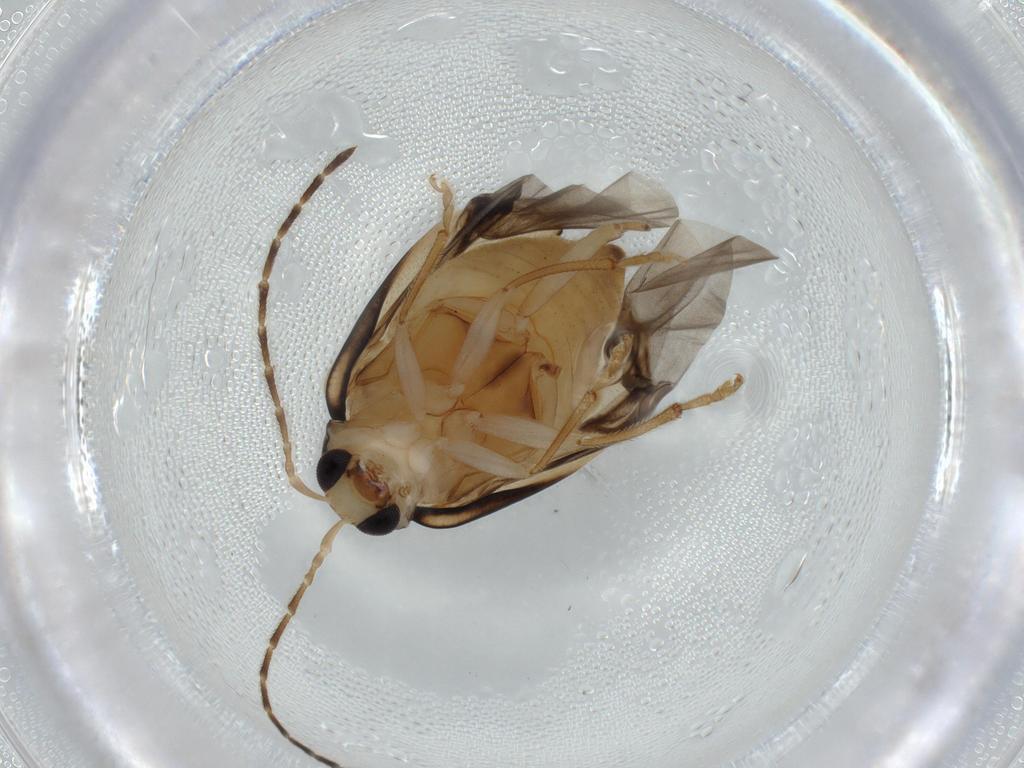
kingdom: Animalia
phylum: Arthropoda
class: Insecta
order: Coleoptera
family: Chrysomelidae
